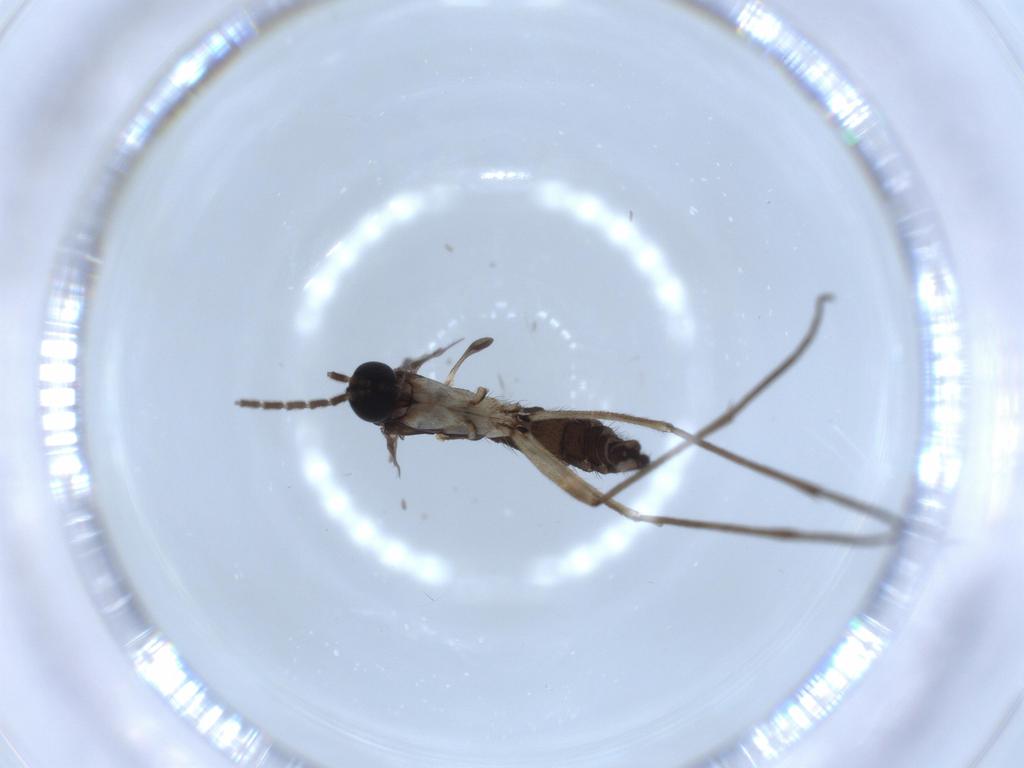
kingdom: Animalia
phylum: Arthropoda
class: Insecta
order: Diptera
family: Sciaridae
